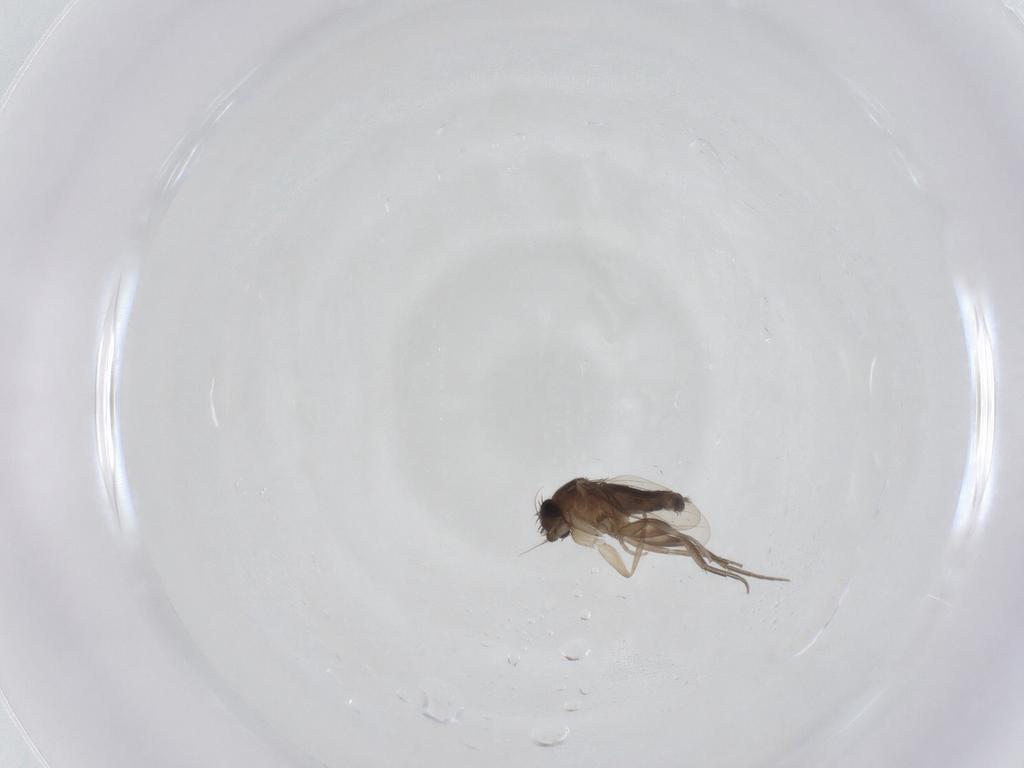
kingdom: Animalia
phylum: Arthropoda
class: Insecta
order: Diptera
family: Phoridae
